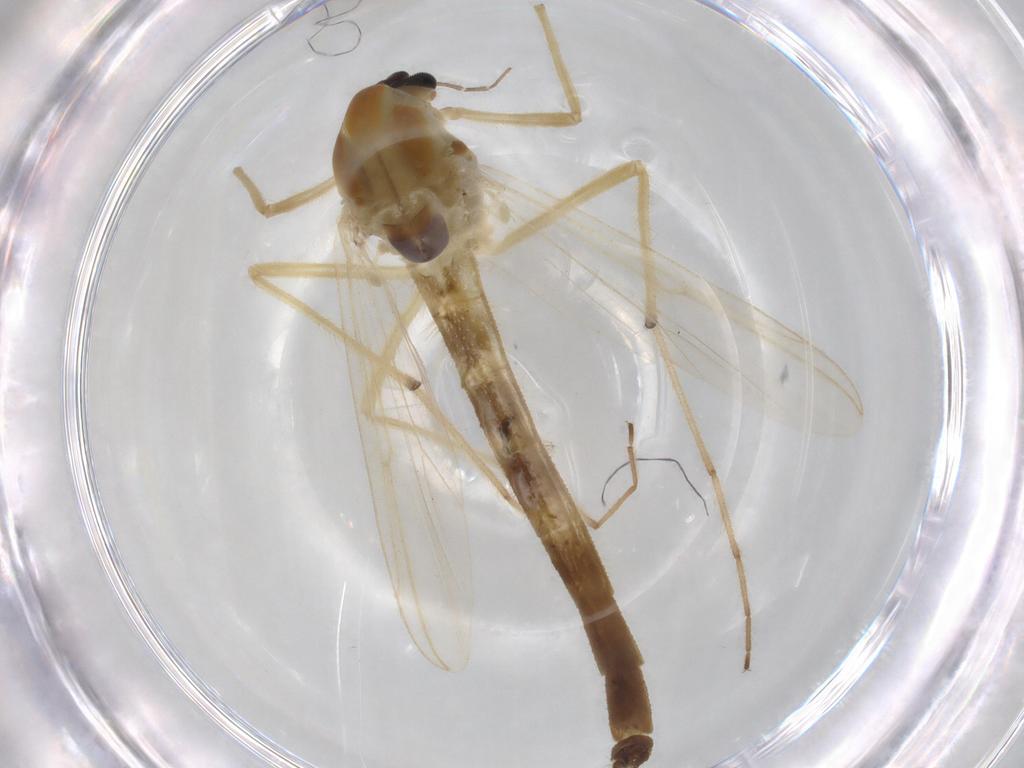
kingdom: Animalia
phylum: Arthropoda
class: Insecta
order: Diptera
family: Chironomidae
